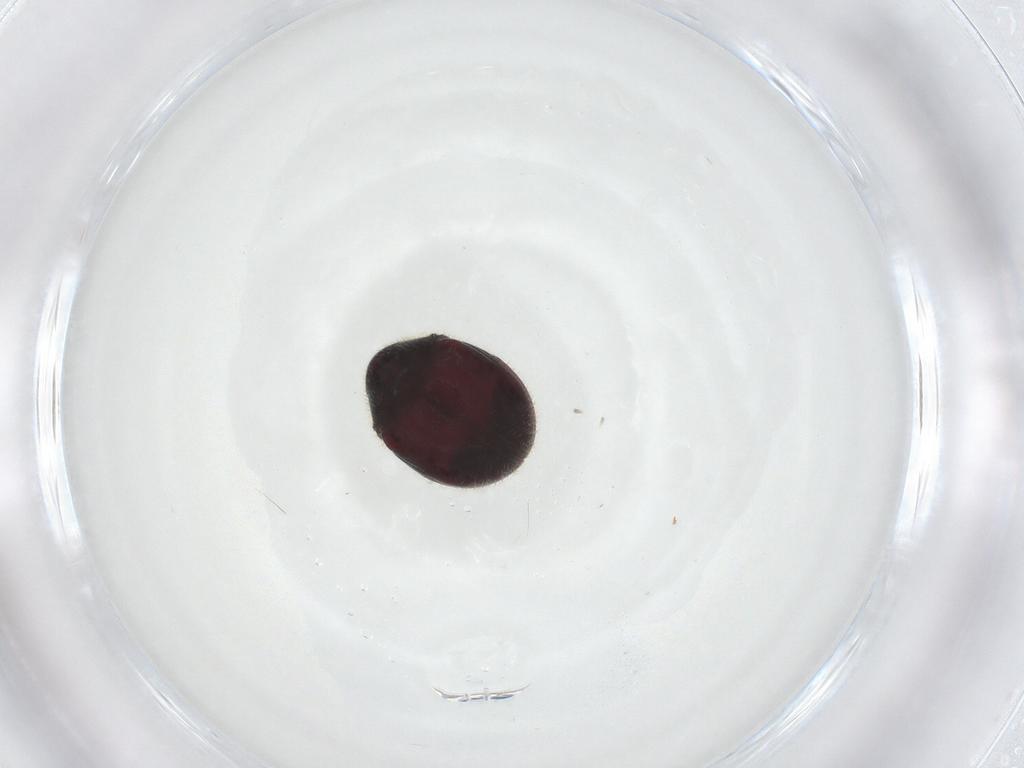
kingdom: Animalia
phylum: Arthropoda
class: Insecta
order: Coleoptera
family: Ptinidae
